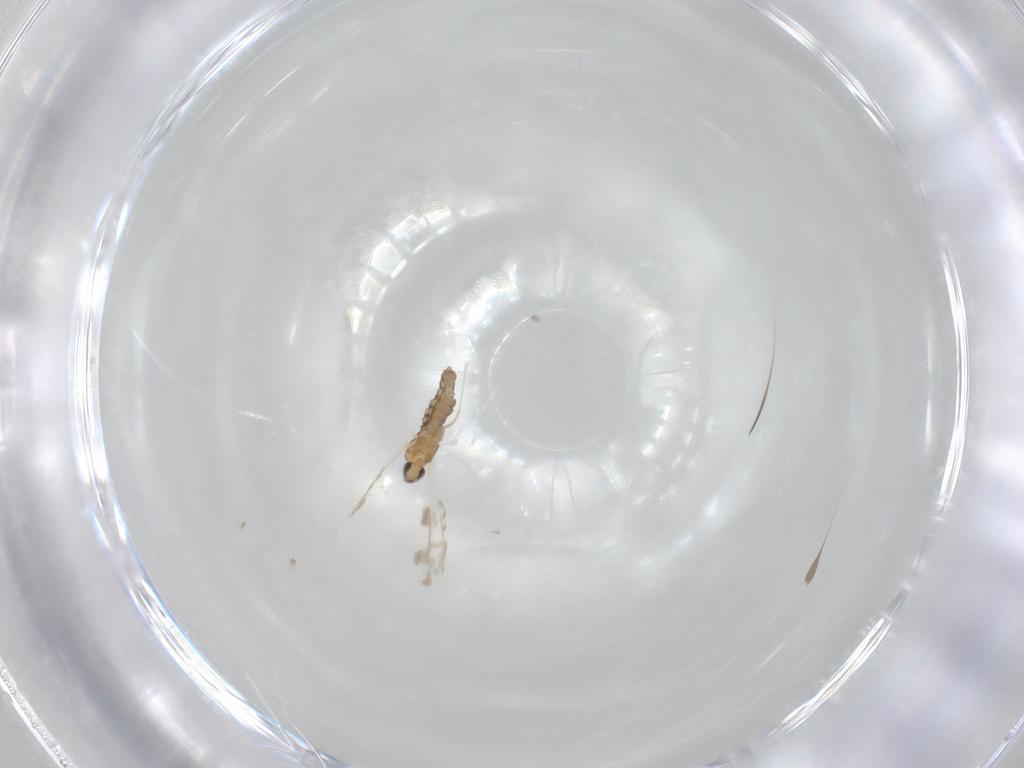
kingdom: Animalia
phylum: Arthropoda
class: Insecta
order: Diptera
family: Cecidomyiidae
